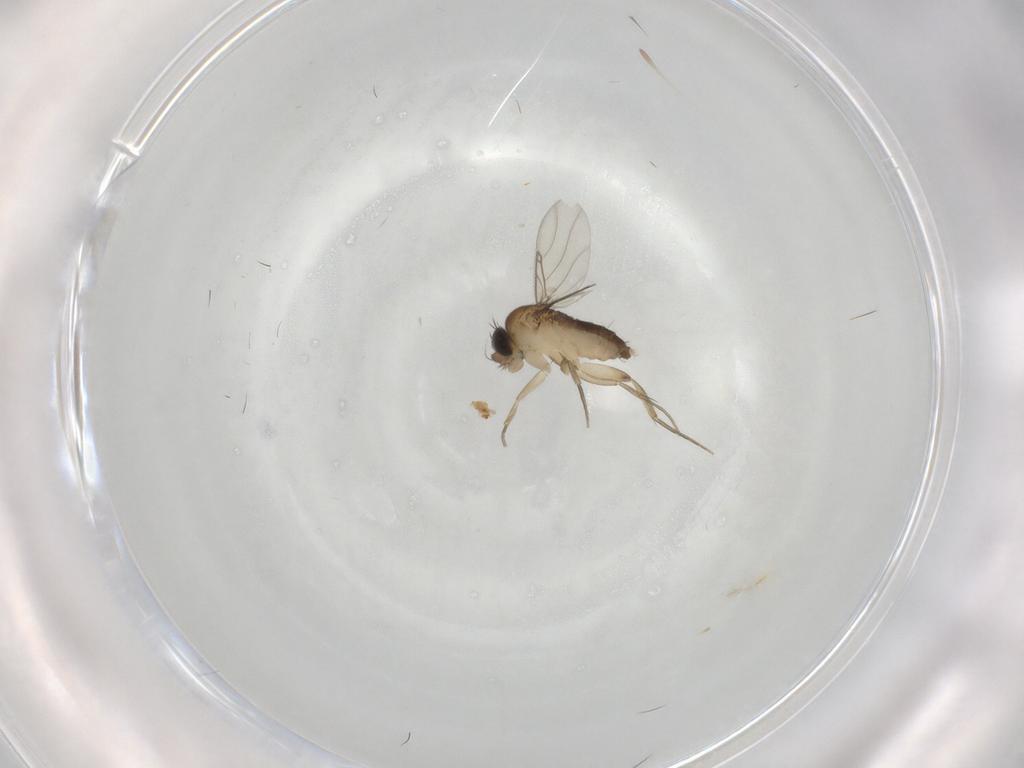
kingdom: Animalia
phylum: Arthropoda
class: Insecta
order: Diptera
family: Phoridae
